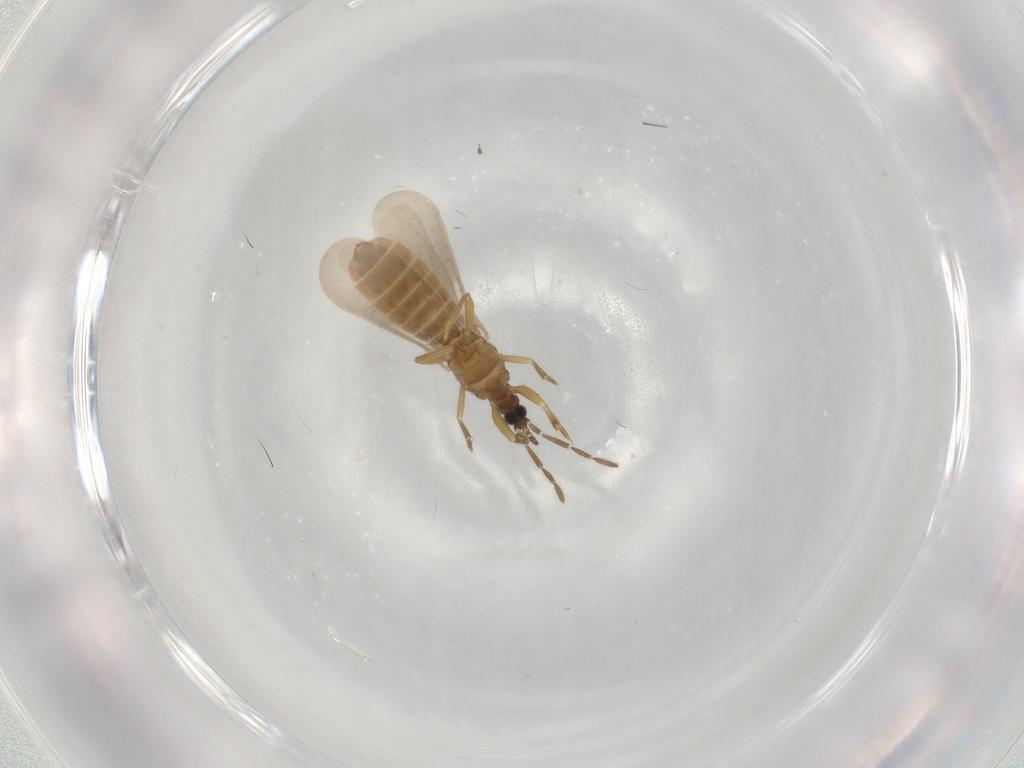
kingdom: Animalia
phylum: Arthropoda
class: Insecta
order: Hemiptera
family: Enicocephalidae
